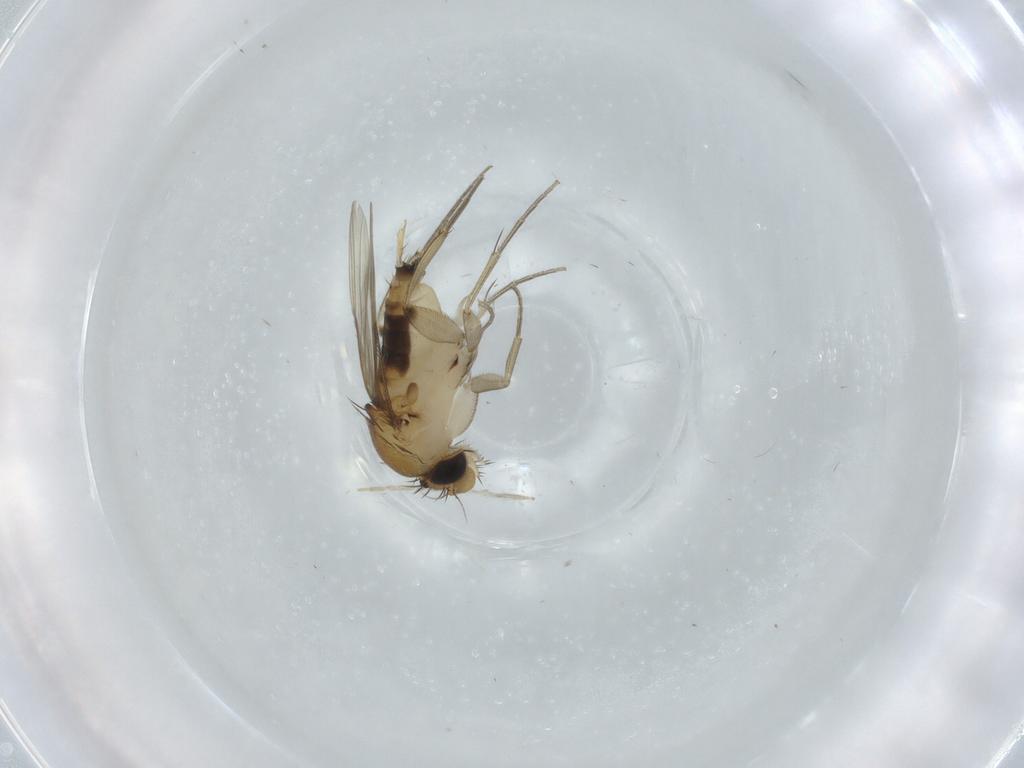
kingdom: Animalia
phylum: Arthropoda
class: Insecta
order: Diptera
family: Phoridae
